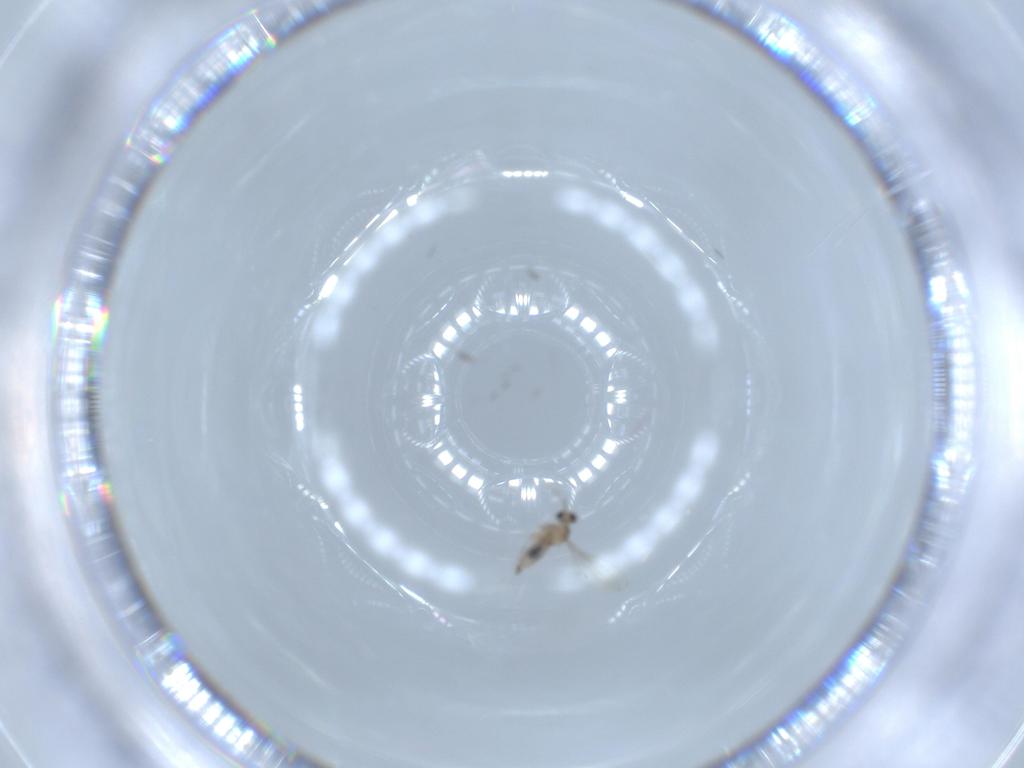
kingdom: Animalia
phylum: Arthropoda
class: Insecta
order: Diptera
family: Cecidomyiidae
